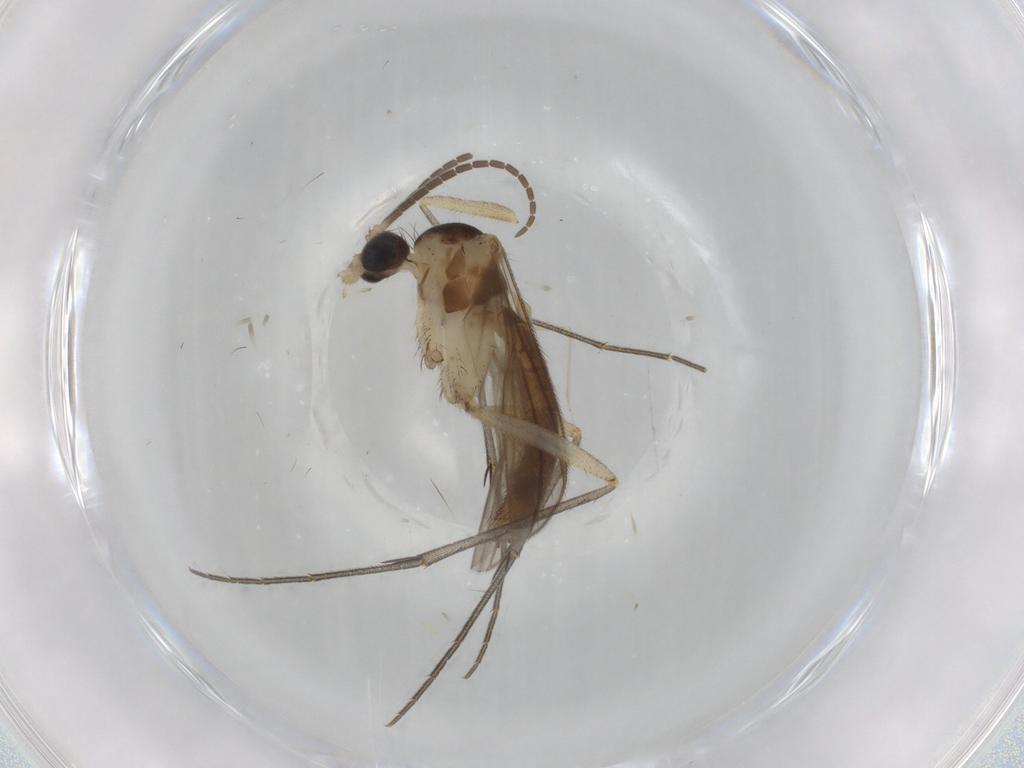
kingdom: Animalia
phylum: Arthropoda
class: Insecta
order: Diptera
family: Mycetophilidae
